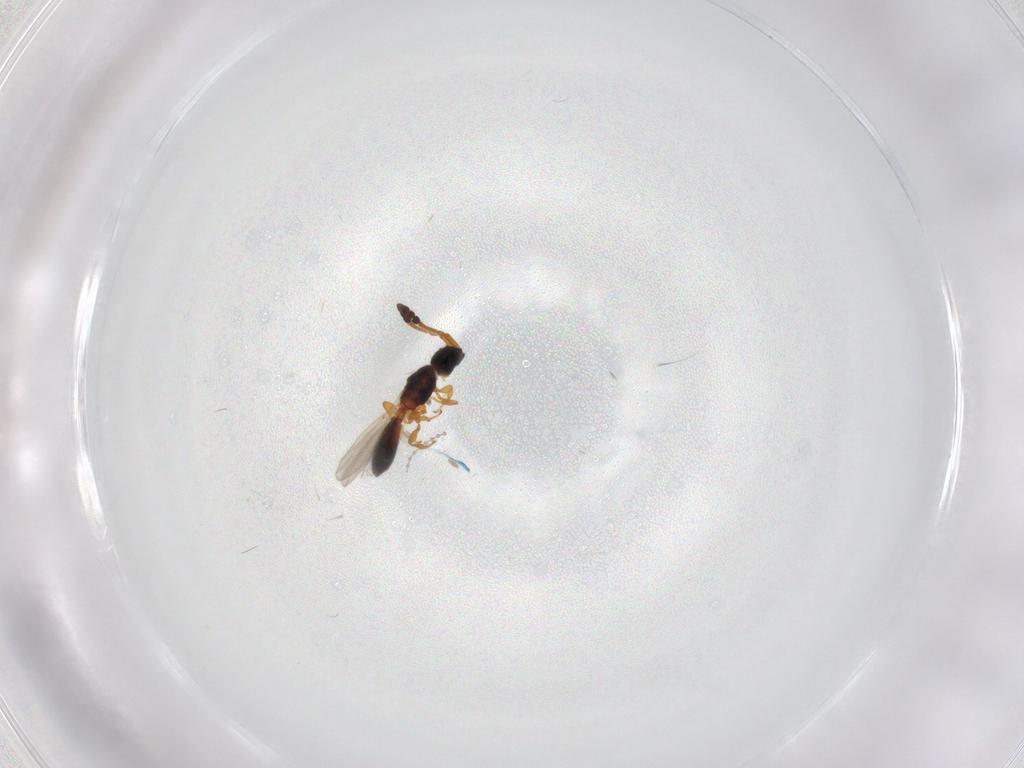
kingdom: Animalia
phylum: Arthropoda
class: Insecta
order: Hymenoptera
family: Diapriidae
